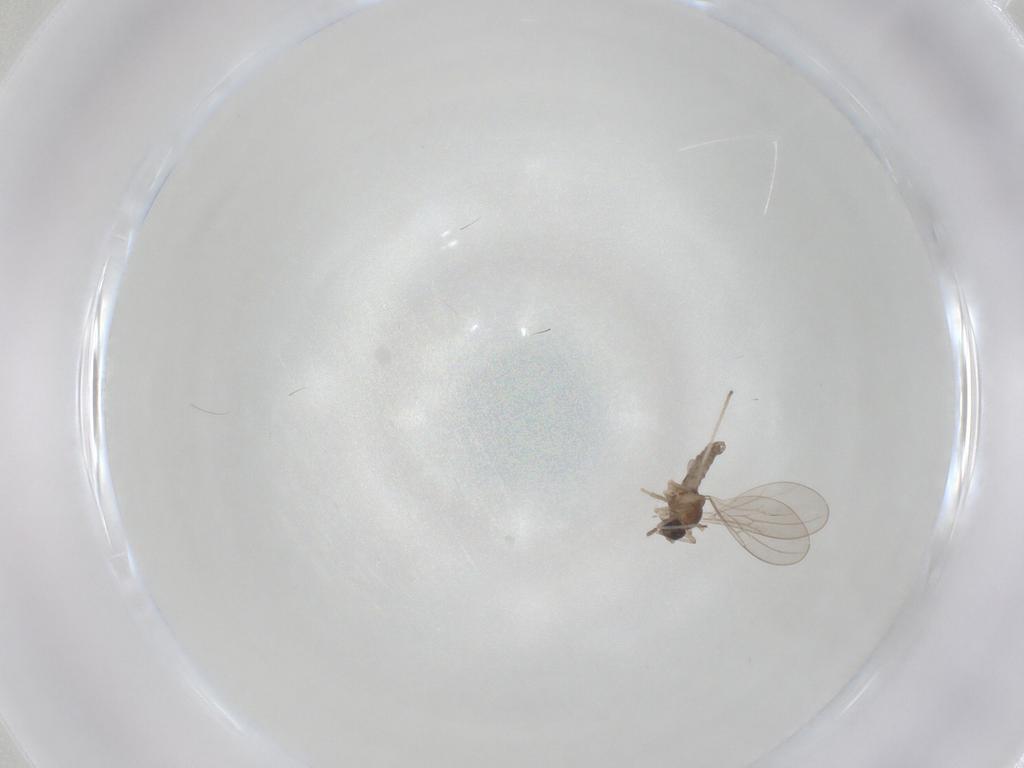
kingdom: Animalia
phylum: Arthropoda
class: Insecta
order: Diptera
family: Cecidomyiidae
